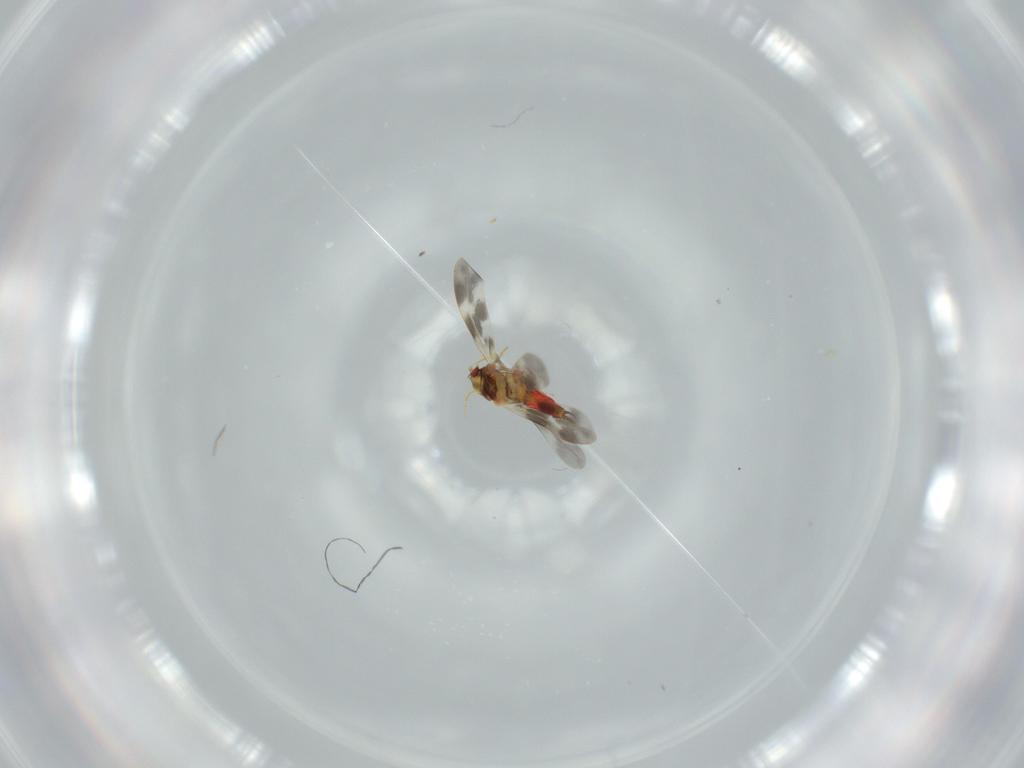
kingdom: Animalia
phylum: Arthropoda
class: Insecta
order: Hemiptera
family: Aleyrodidae
